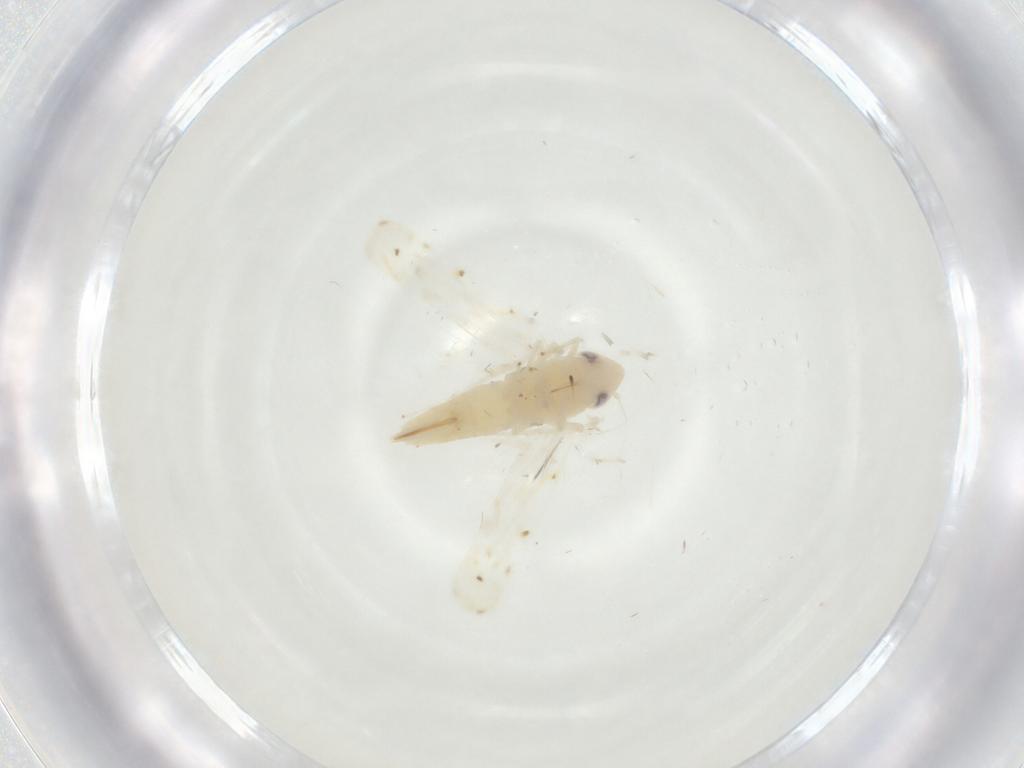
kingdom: Animalia
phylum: Arthropoda
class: Insecta
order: Hemiptera
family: Cicadellidae
